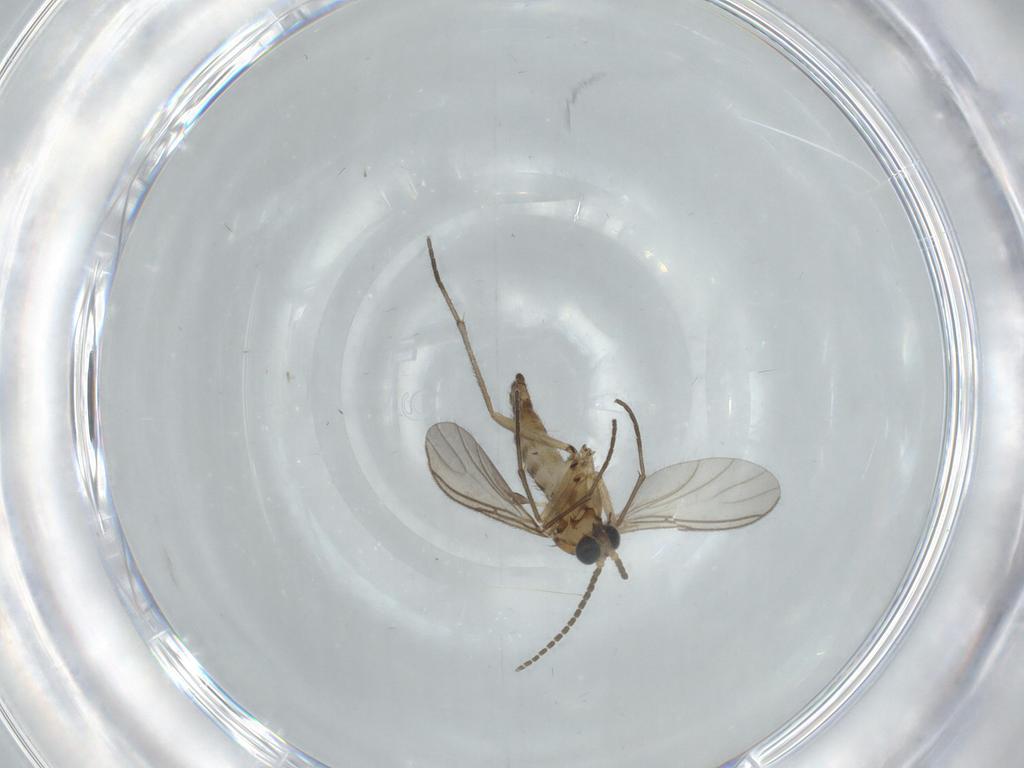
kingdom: Animalia
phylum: Arthropoda
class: Insecta
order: Diptera
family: Sciaridae
